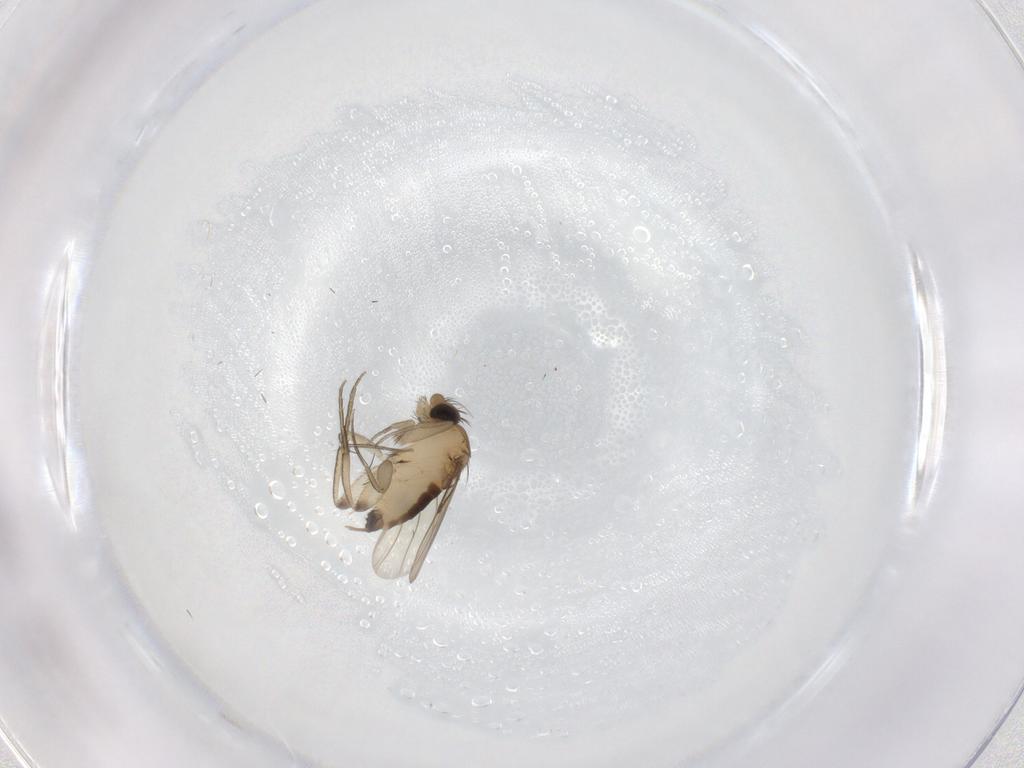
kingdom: Animalia
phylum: Arthropoda
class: Insecta
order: Diptera
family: Phoridae
